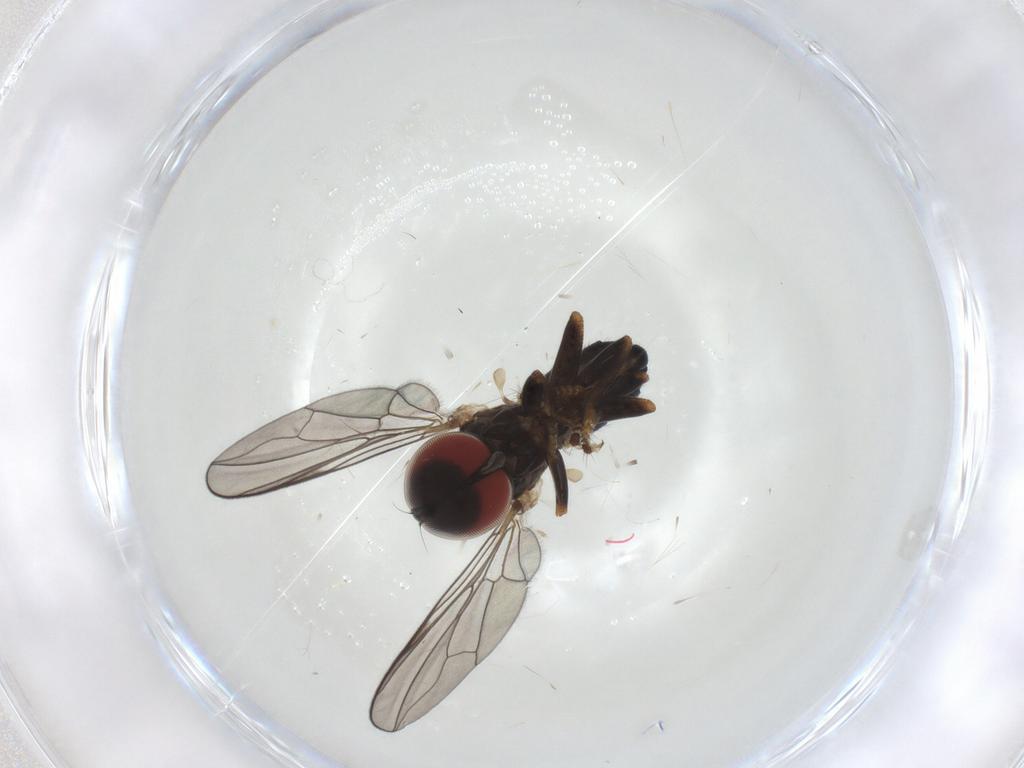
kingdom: Animalia
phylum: Arthropoda
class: Insecta
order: Diptera
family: Pipunculidae
